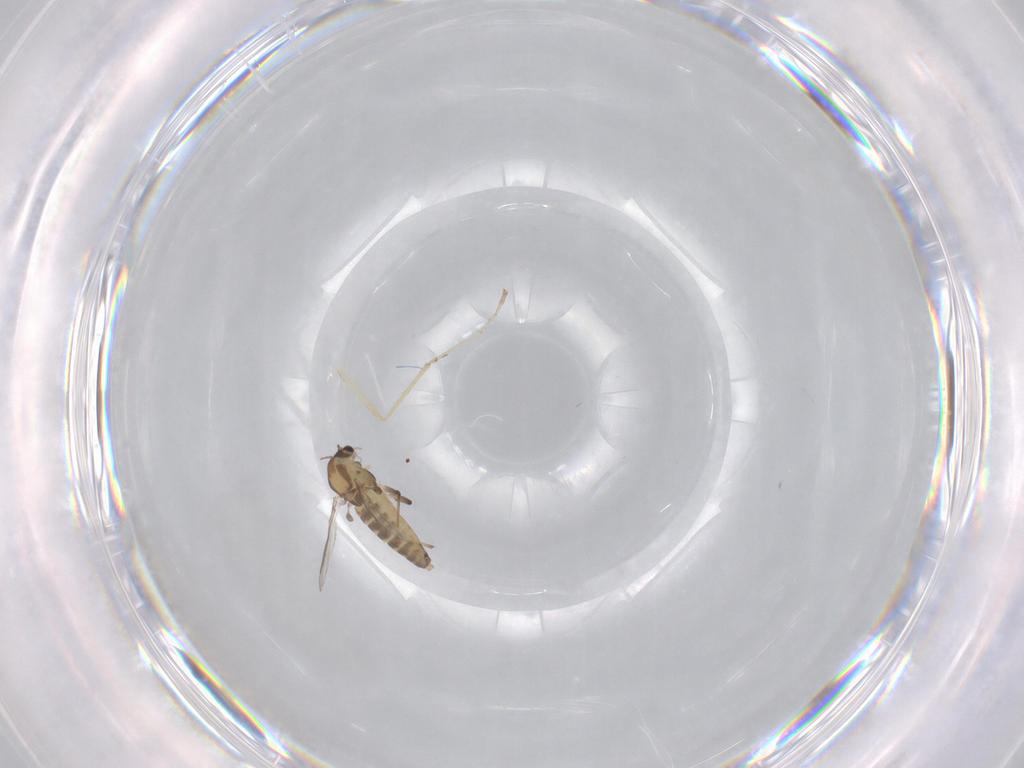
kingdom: Animalia
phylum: Arthropoda
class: Insecta
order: Diptera
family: Chironomidae
